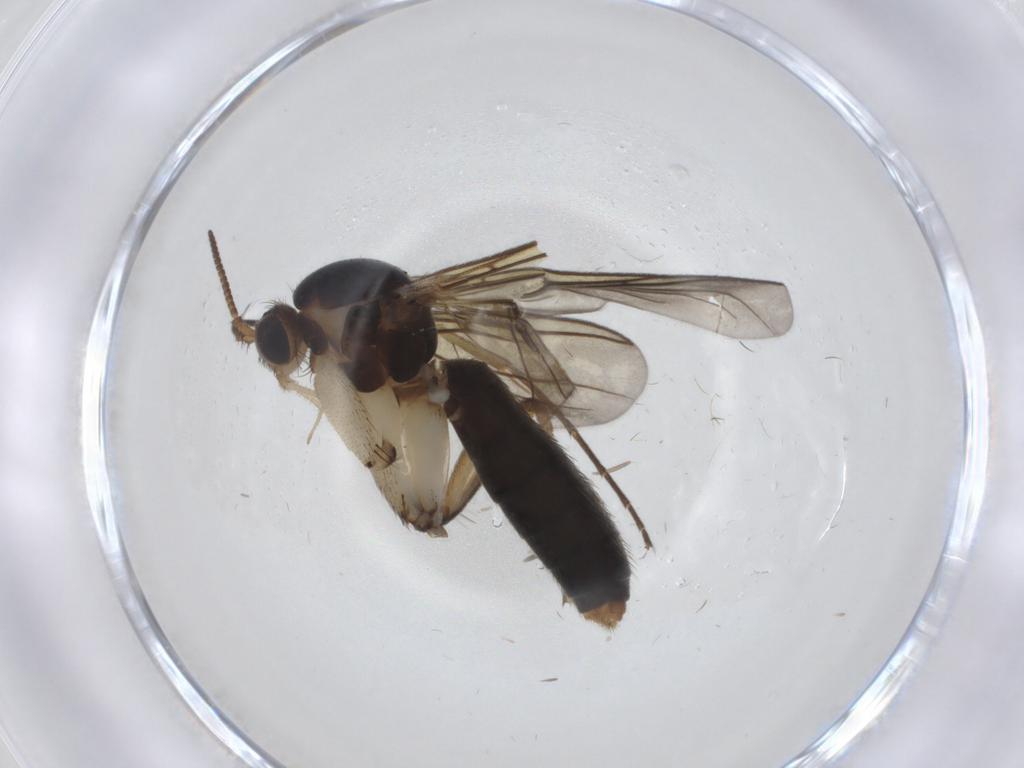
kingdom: Animalia
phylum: Arthropoda
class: Insecta
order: Diptera
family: Mycetophilidae
